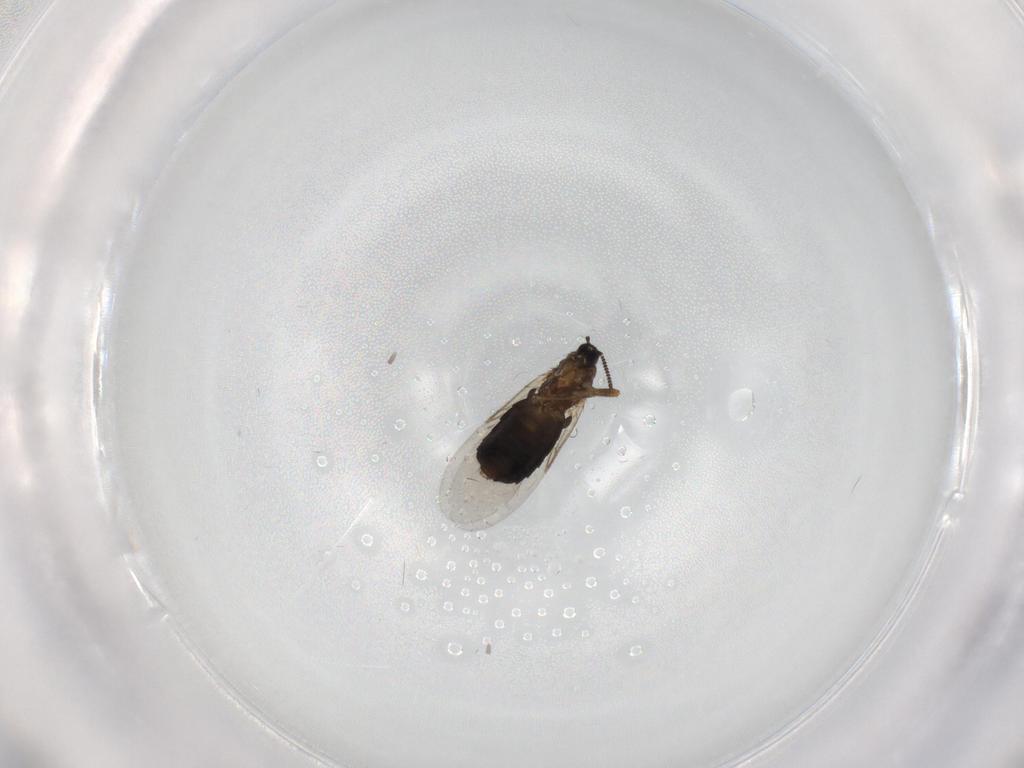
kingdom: Animalia
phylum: Arthropoda
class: Insecta
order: Diptera
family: Scatopsidae
